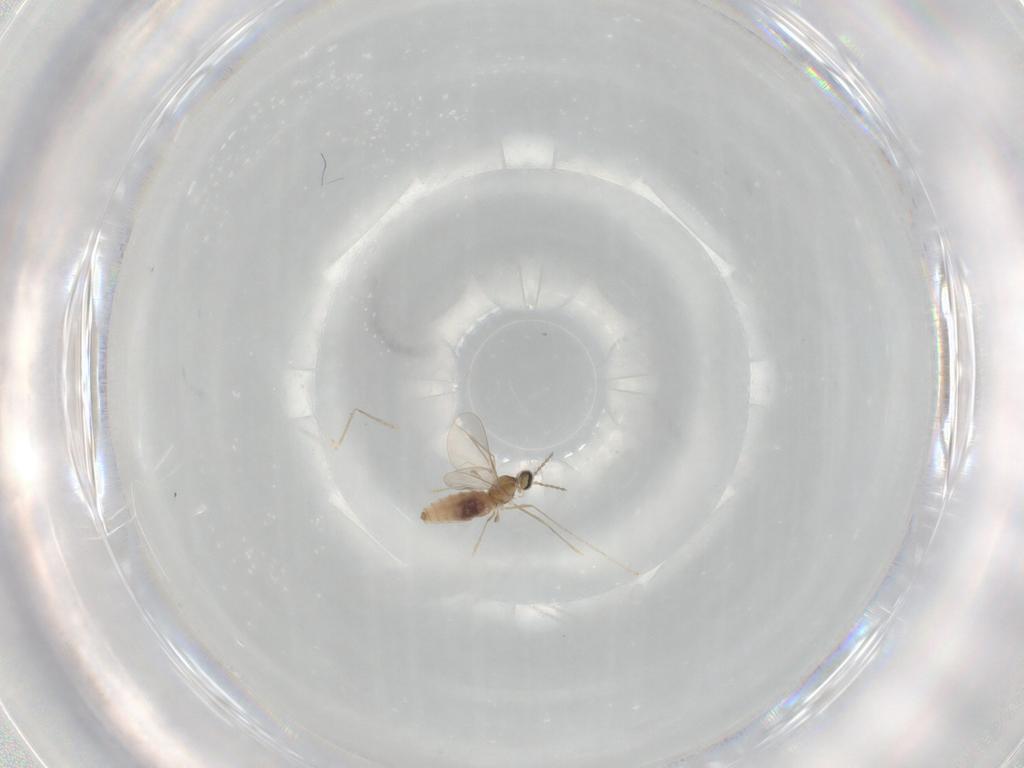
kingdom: Animalia
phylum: Arthropoda
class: Insecta
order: Diptera
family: Cecidomyiidae
